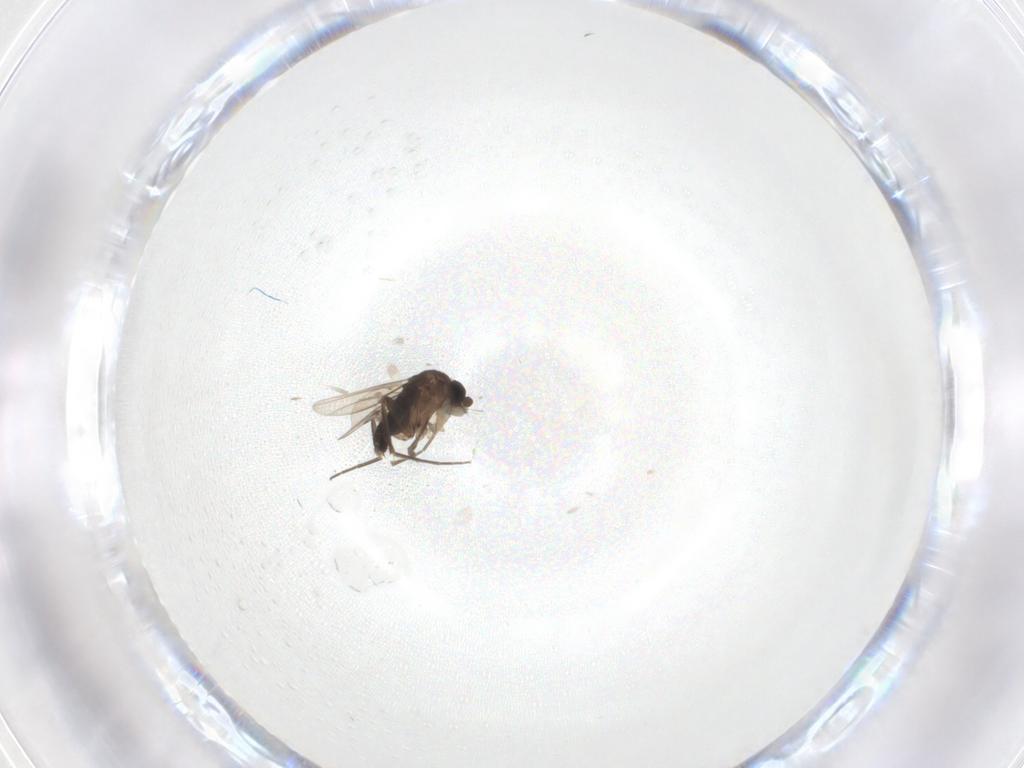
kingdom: Animalia
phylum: Arthropoda
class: Insecta
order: Diptera
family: Phoridae
